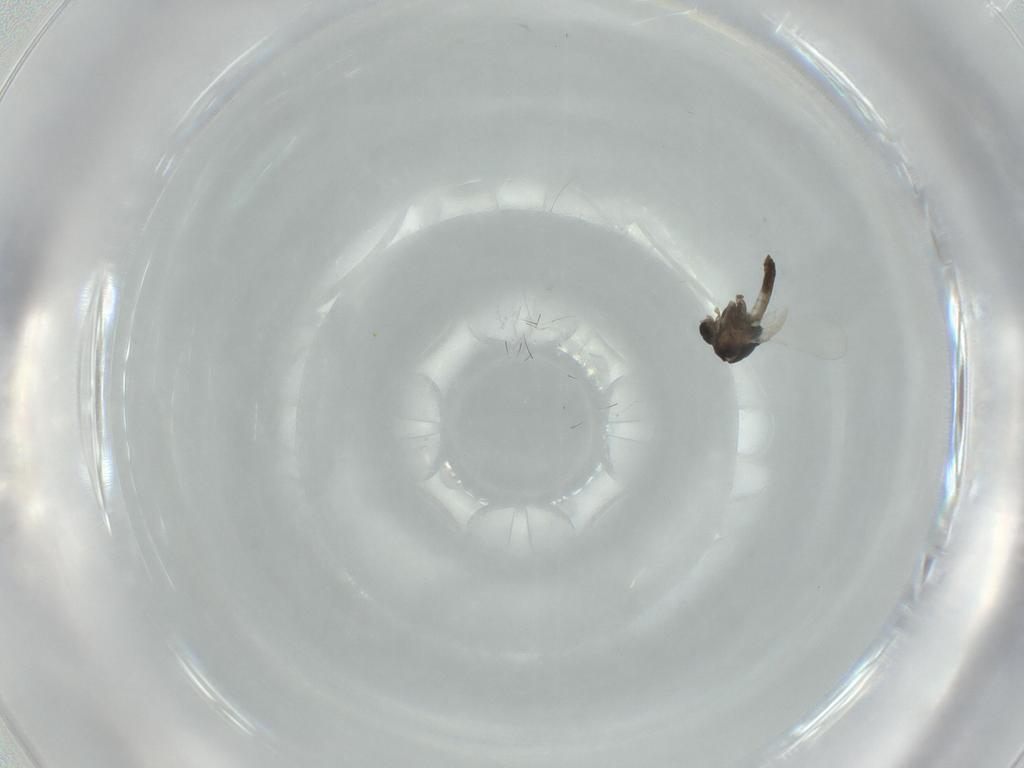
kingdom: Animalia
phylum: Arthropoda
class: Insecta
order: Diptera
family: Chironomidae
